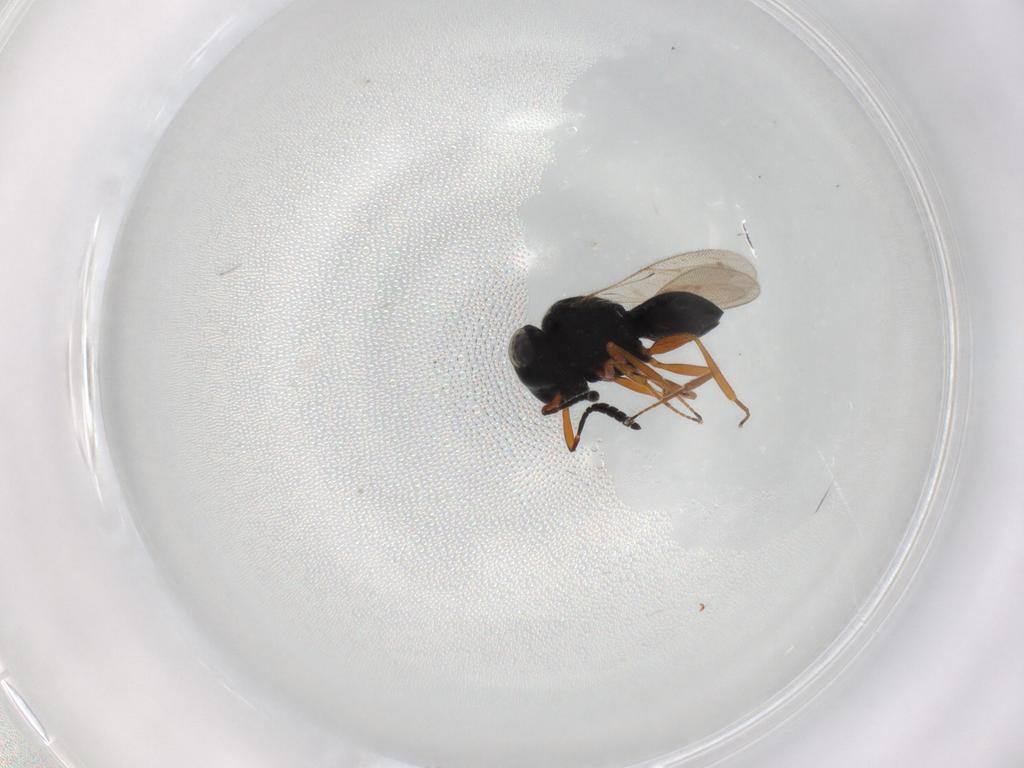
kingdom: Animalia
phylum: Arthropoda
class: Insecta
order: Hymenoptera
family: Scelionidae
